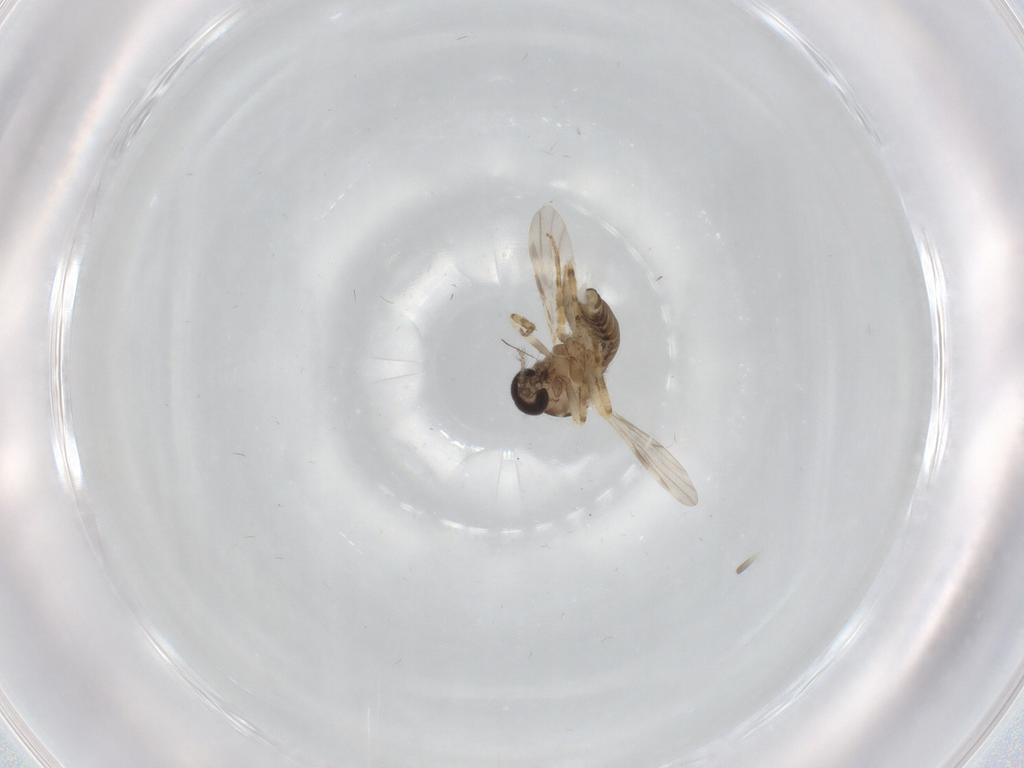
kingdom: Animalia
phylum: Arthropoda
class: Insecta
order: Diptera
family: Ceratopogonidae
